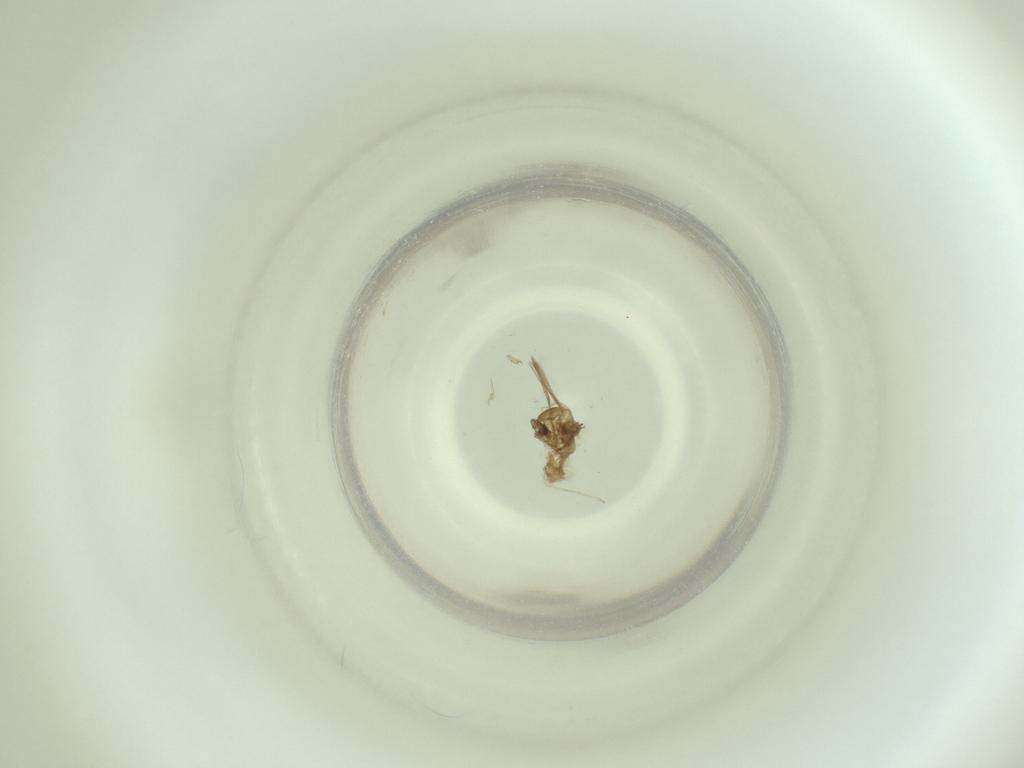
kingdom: Animalia
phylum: Arthropoda
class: Insecta
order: Diptera
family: Cecidomyiidae
